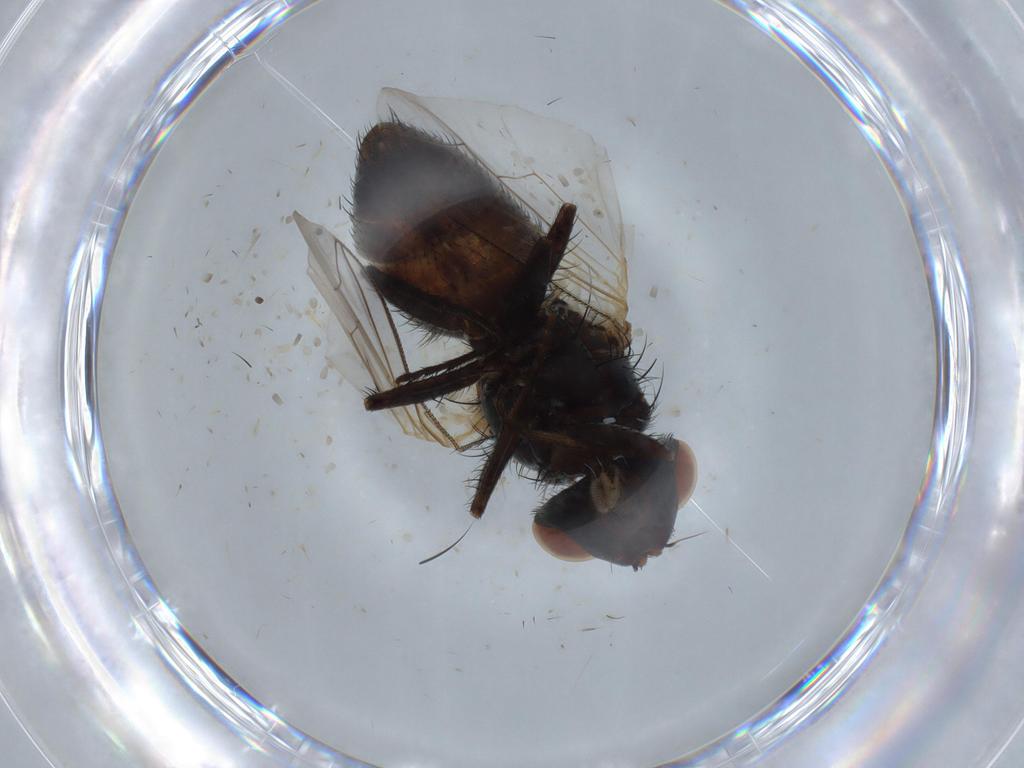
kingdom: Animalia
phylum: Arthropoda
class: Insecta
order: Diptera
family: Sarcophagidae
